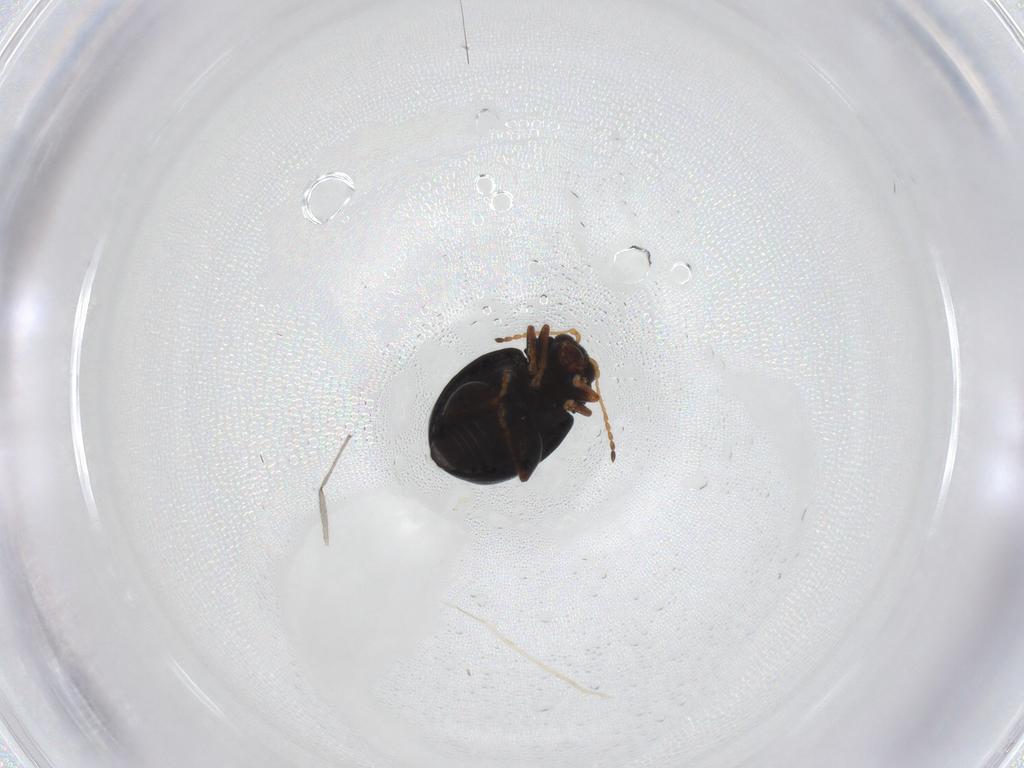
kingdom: Animalia
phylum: Arthropoda
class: Insecta
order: Coleoptera
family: Chrysomelidae
